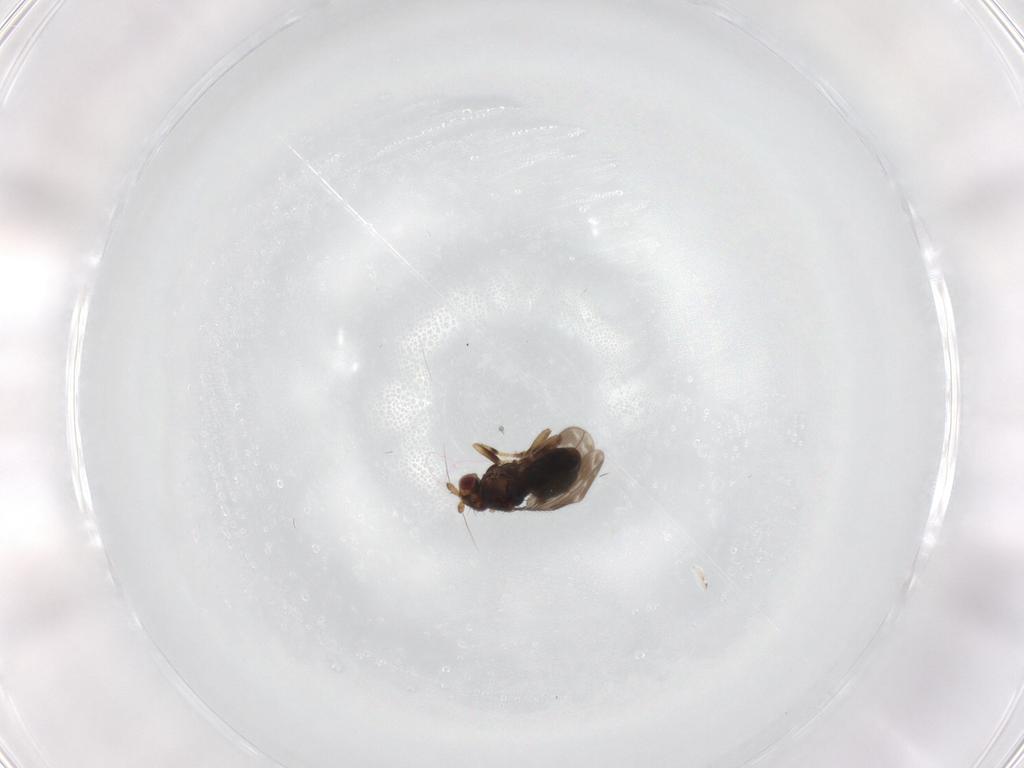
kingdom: Animalia
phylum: Arthropoda
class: Insecta
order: Diptera
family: Sphaeroceridae
